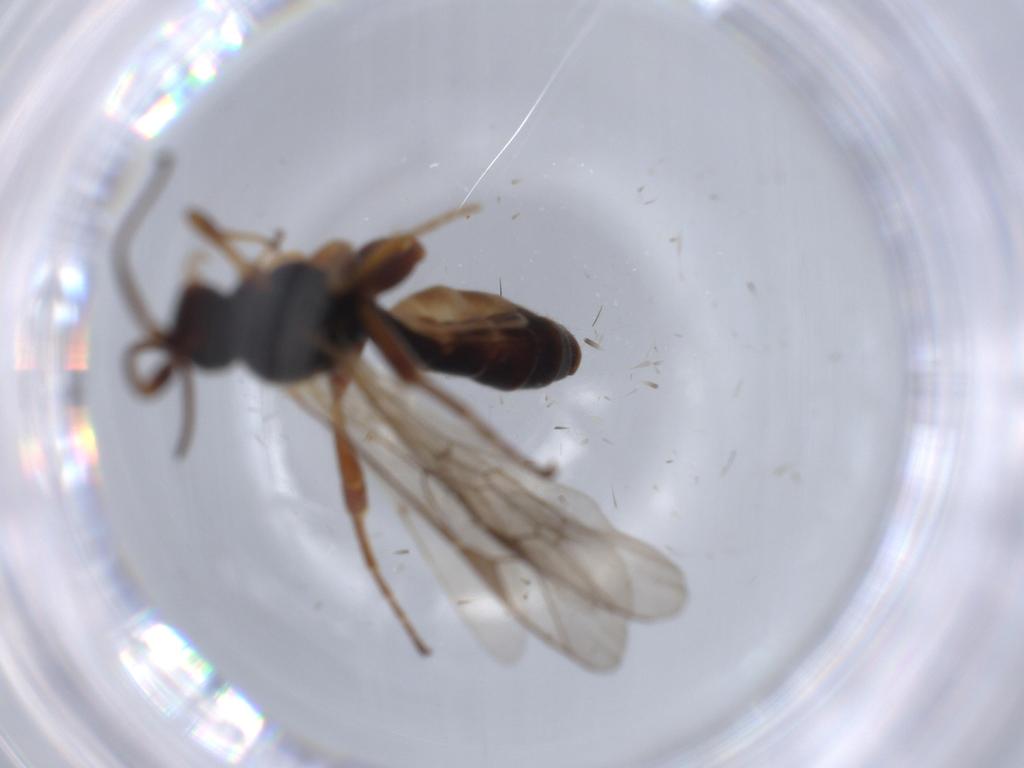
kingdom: Animalia
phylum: Arthropoda
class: Insecta
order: Hymenoptera
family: Ichneumonidae
